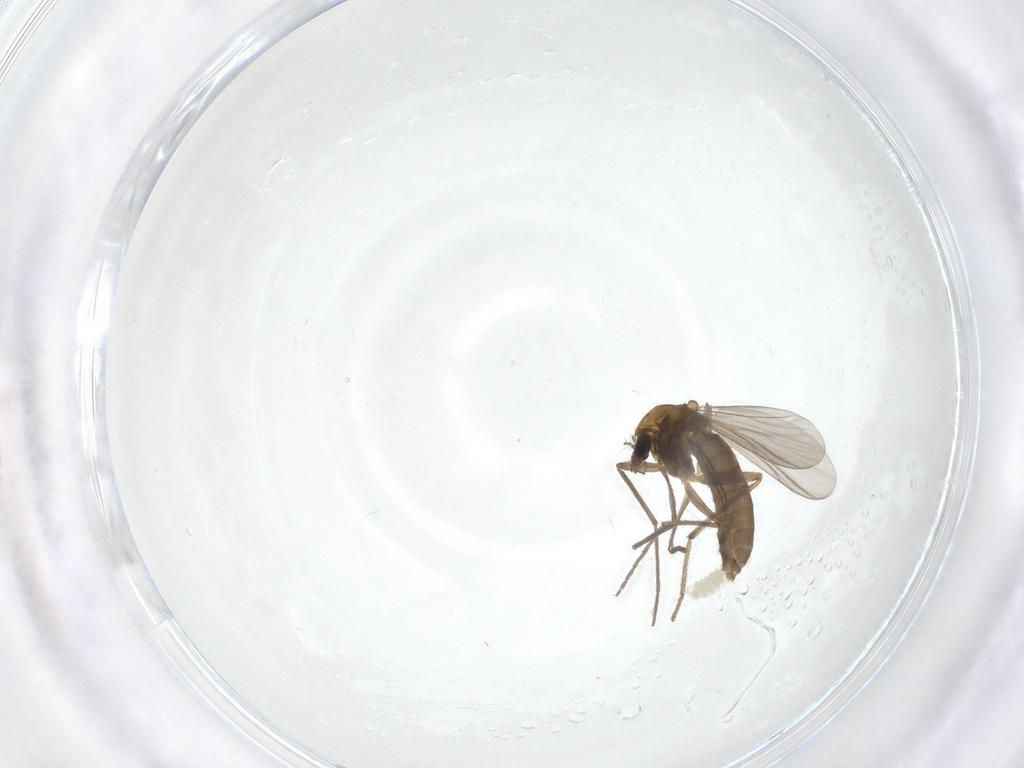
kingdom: Animalia
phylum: Arthropoda
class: Insecta
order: Diptera
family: Chironomidae
